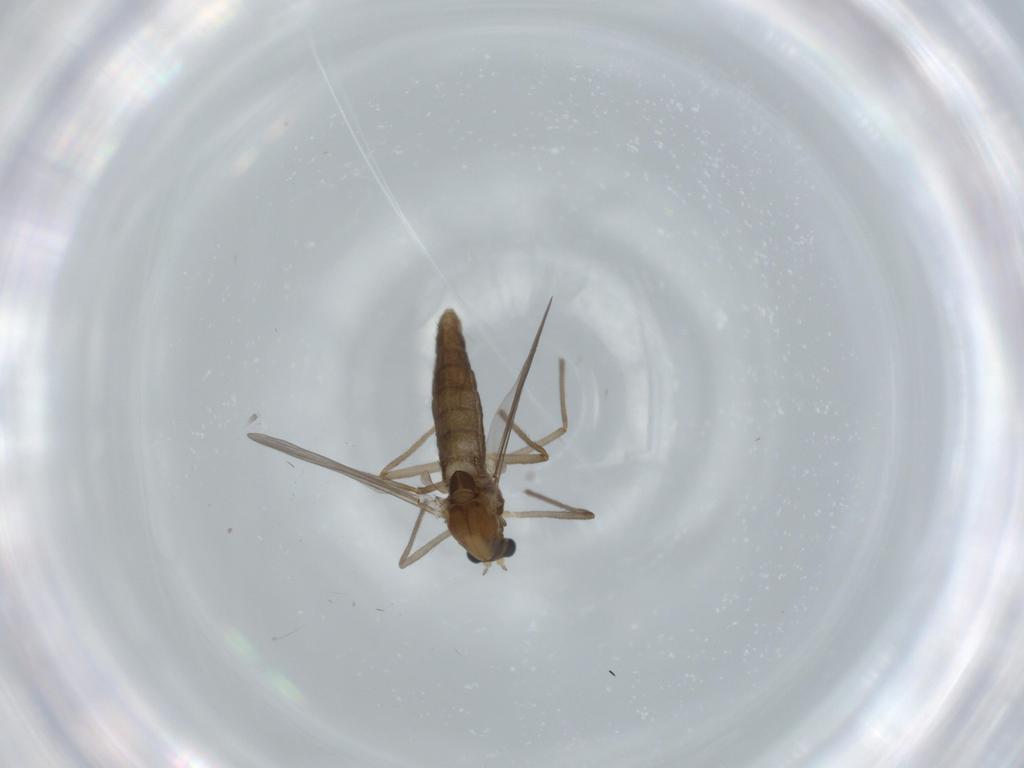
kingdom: Animalia
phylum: Arthropoda
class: Insecta
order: Diptera
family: Chironomidae
